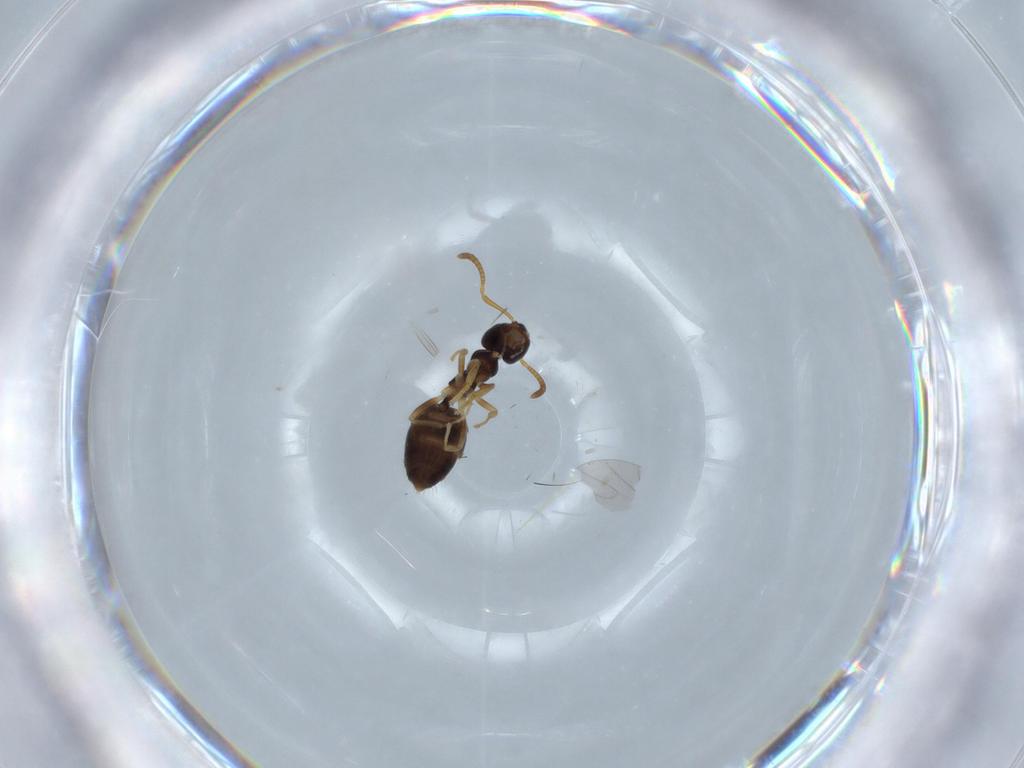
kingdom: Animalia
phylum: Arthropoda
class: Insecta
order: Hymenoptera
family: Formicidae
